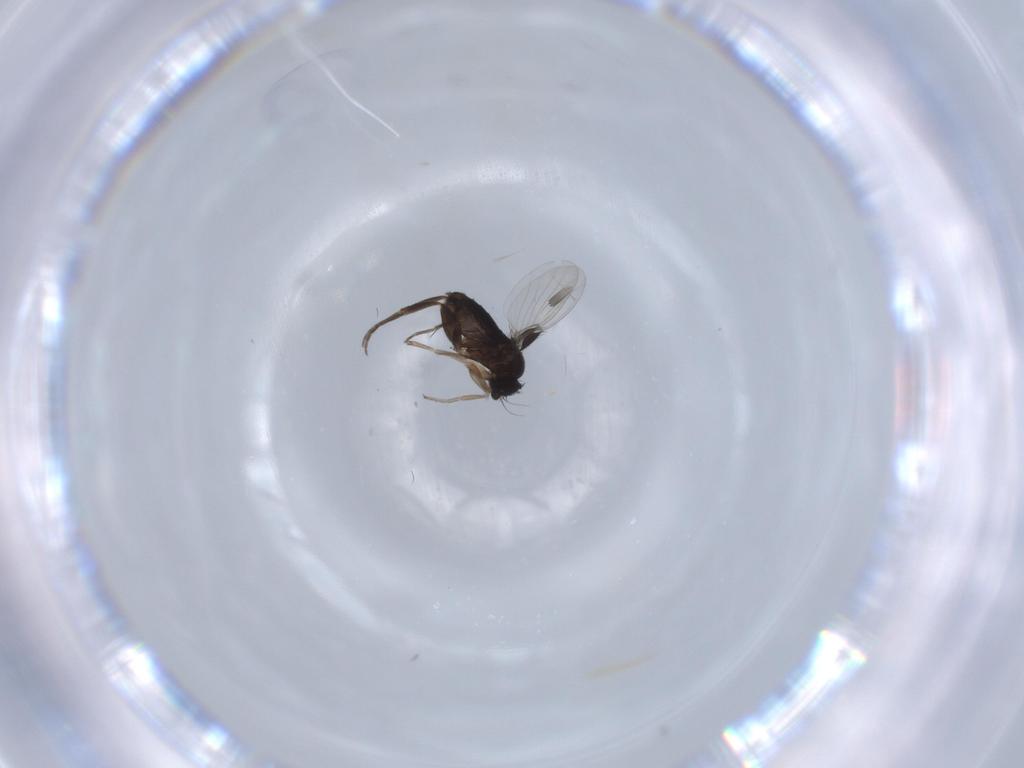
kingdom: Animalia
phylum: Arthropoda
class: Insecta
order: Diptera
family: Phoridae
